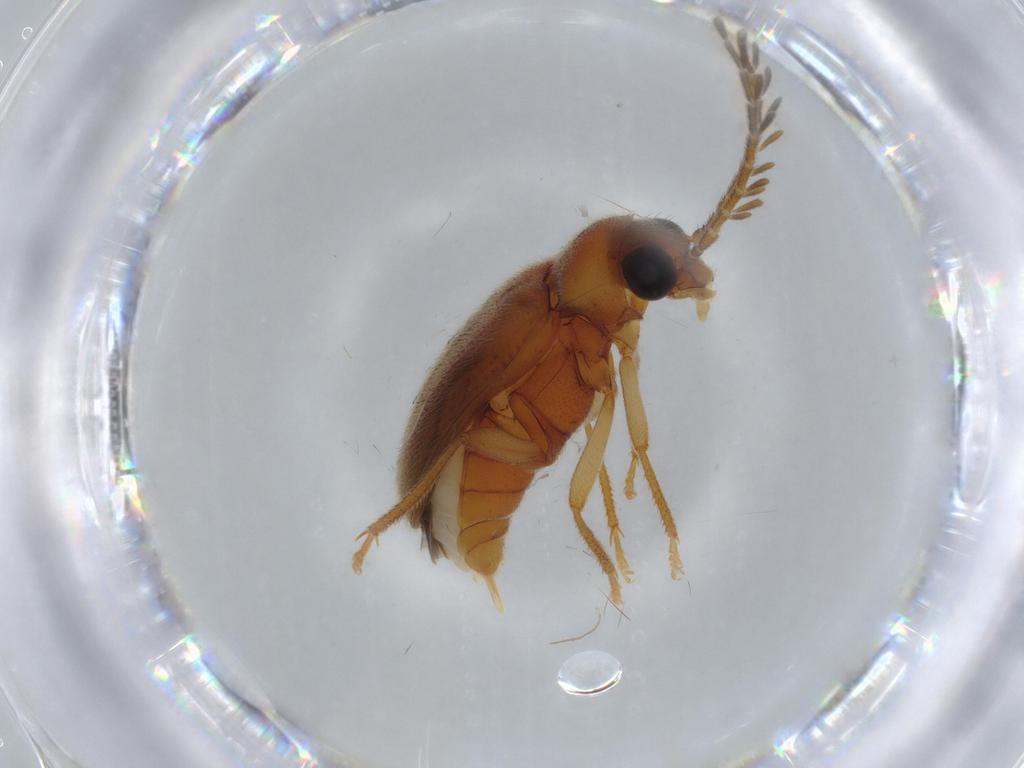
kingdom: Animalia
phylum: Arthropoda
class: Insecta
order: Coleoptera
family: Ptilodactylidae
